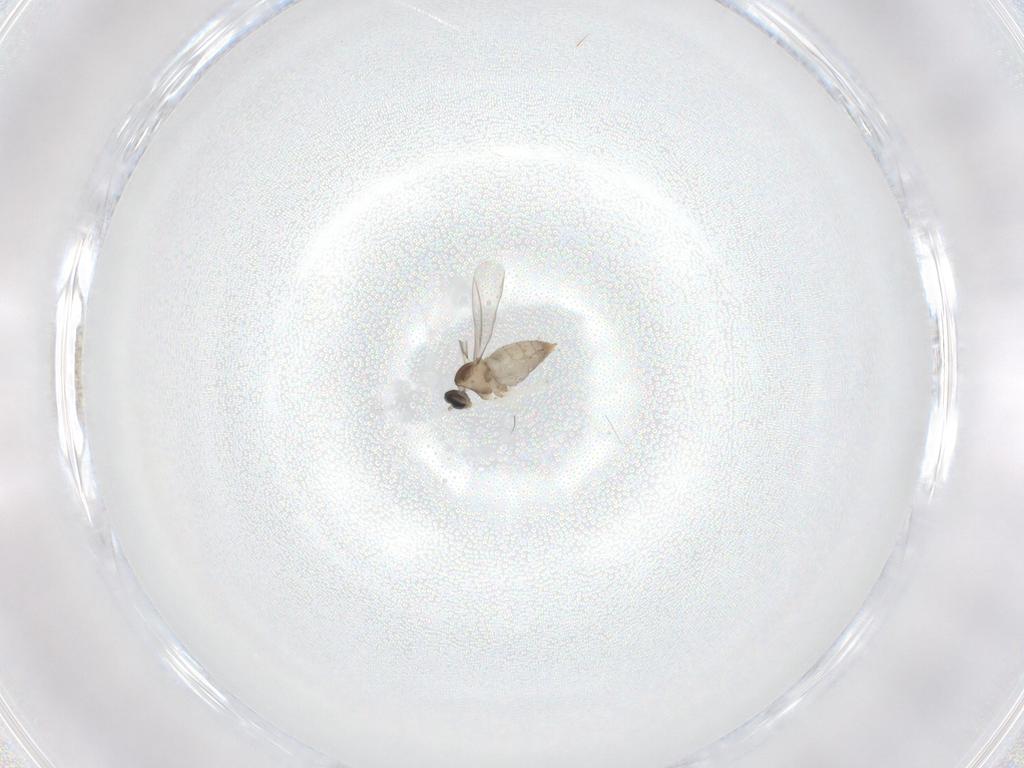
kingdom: Animalia
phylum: Arthropoda
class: Insecta
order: Diptera
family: Cecidomyiidae
